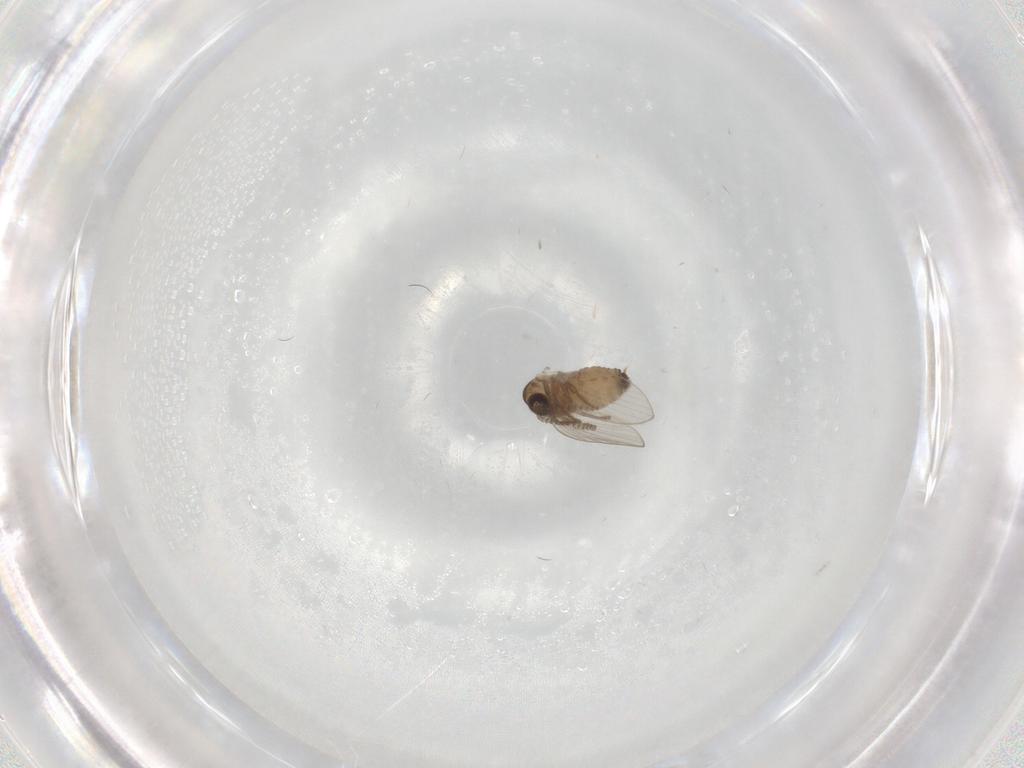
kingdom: Animalia
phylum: Arthropoda
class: Insecta
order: Diptera
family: Psychodidae
